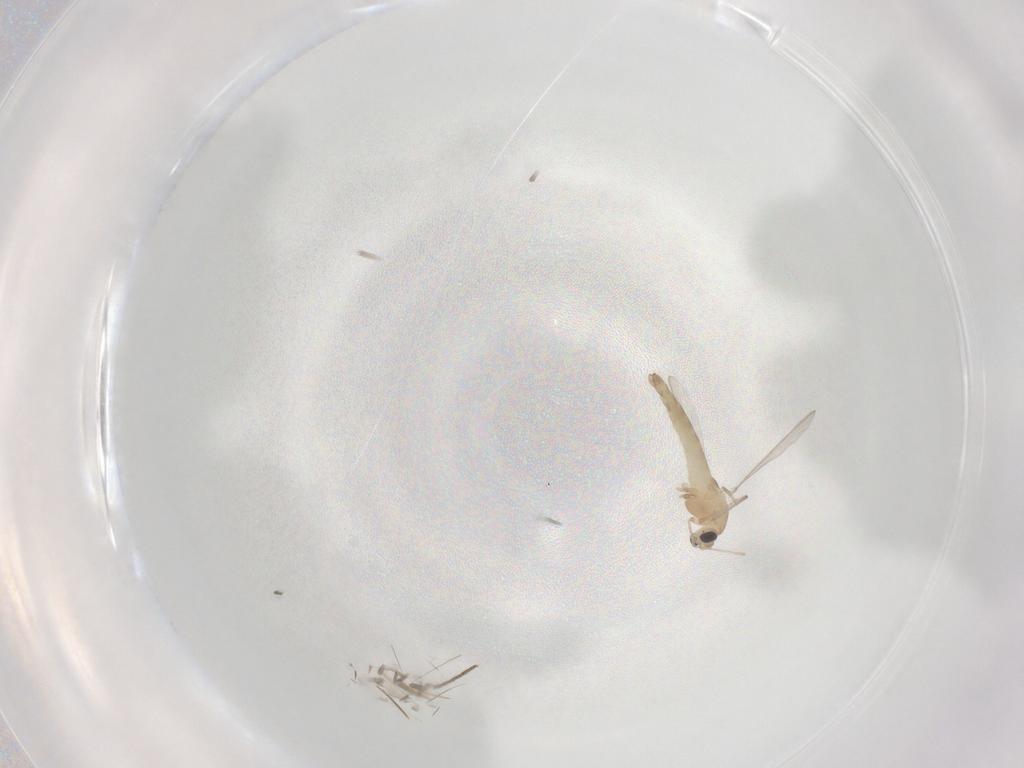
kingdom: Animalia
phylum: Arthropoda
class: Insecta
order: Diptera
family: Chironomidae
